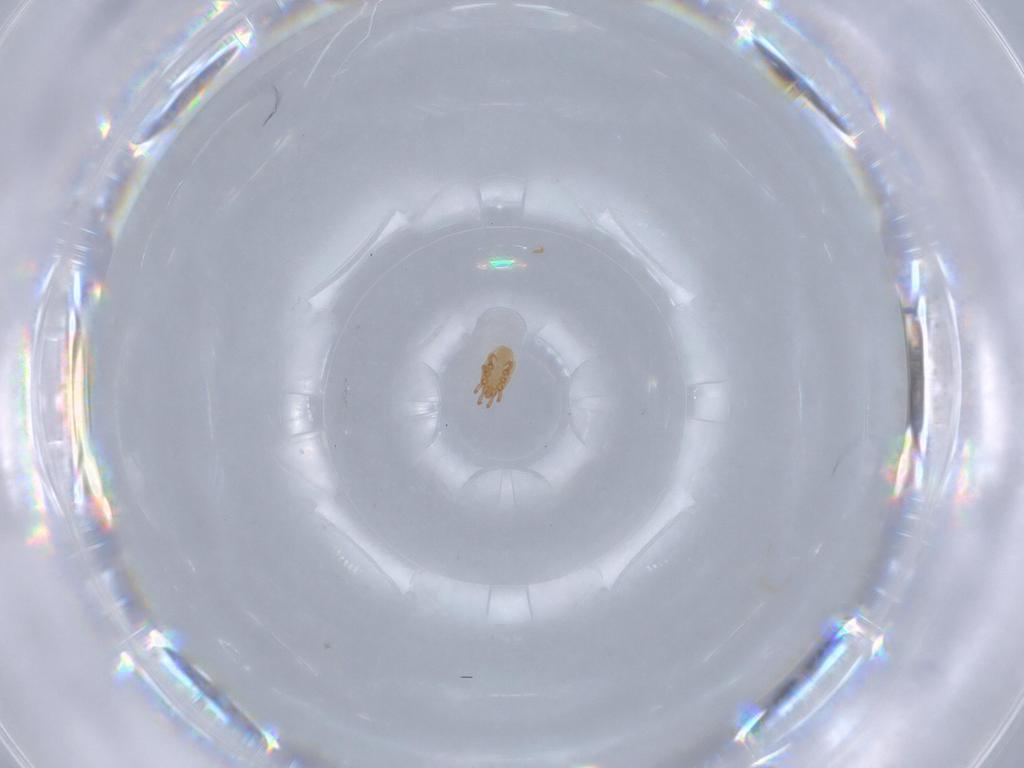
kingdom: Animalia
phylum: Arthropoda
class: Arachnida
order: Mesostigmata
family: Dinychidae
